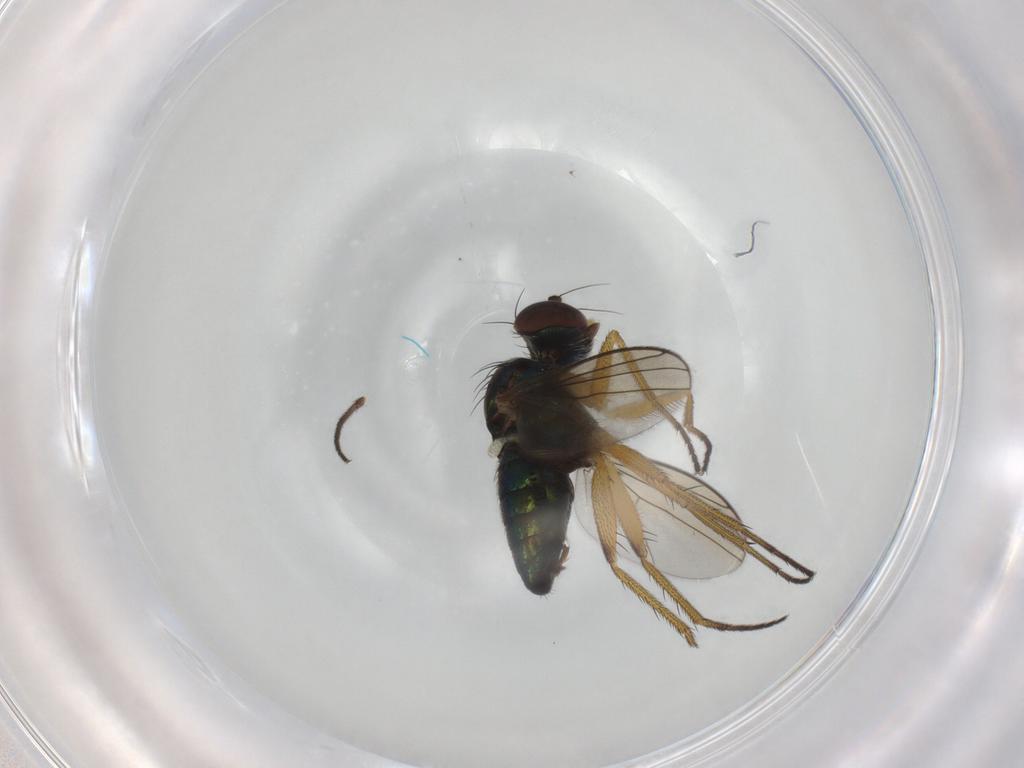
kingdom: Animalia
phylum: Arthropoda
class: Insecta
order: Diptera
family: Dolichopodidae
